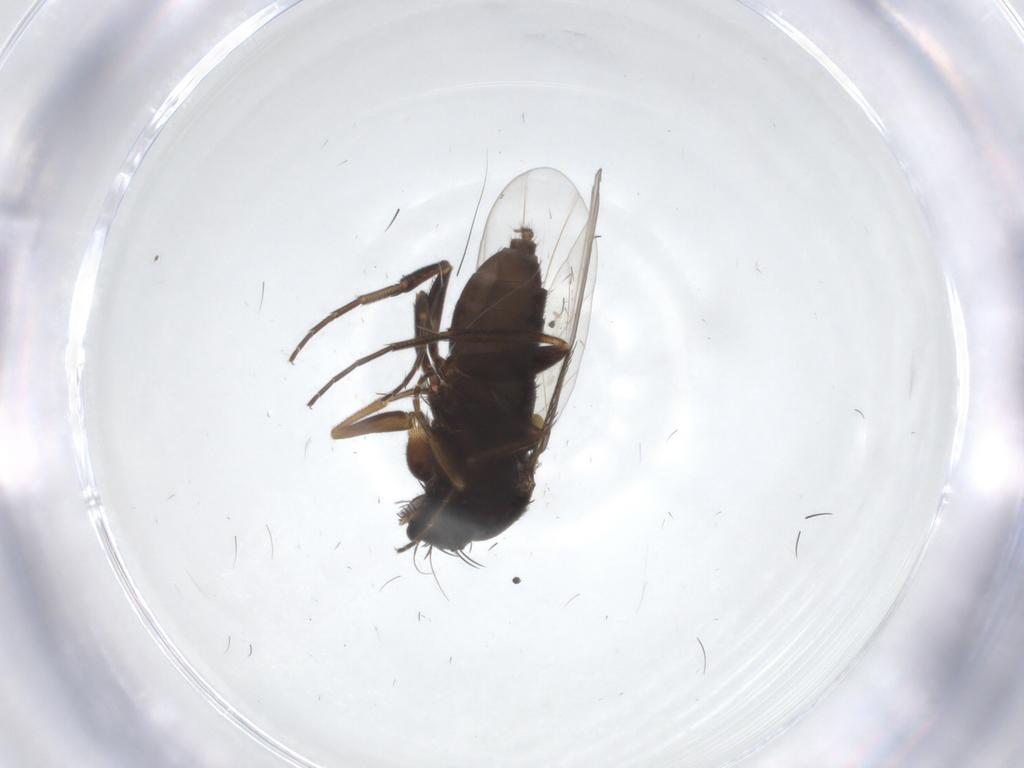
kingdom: Animalia
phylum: Arthropoda
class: Insecta
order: Diptera
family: Phoridae
